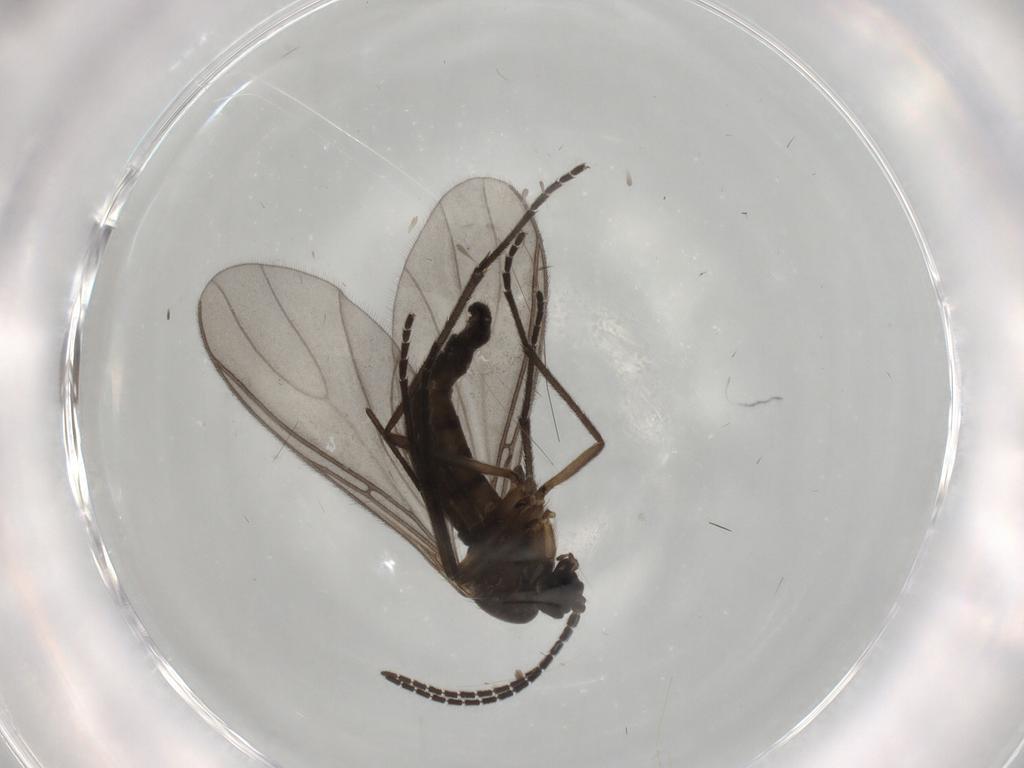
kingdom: Animalia
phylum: Arthropoda
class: Insecta
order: Diptera
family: Sciaridae
